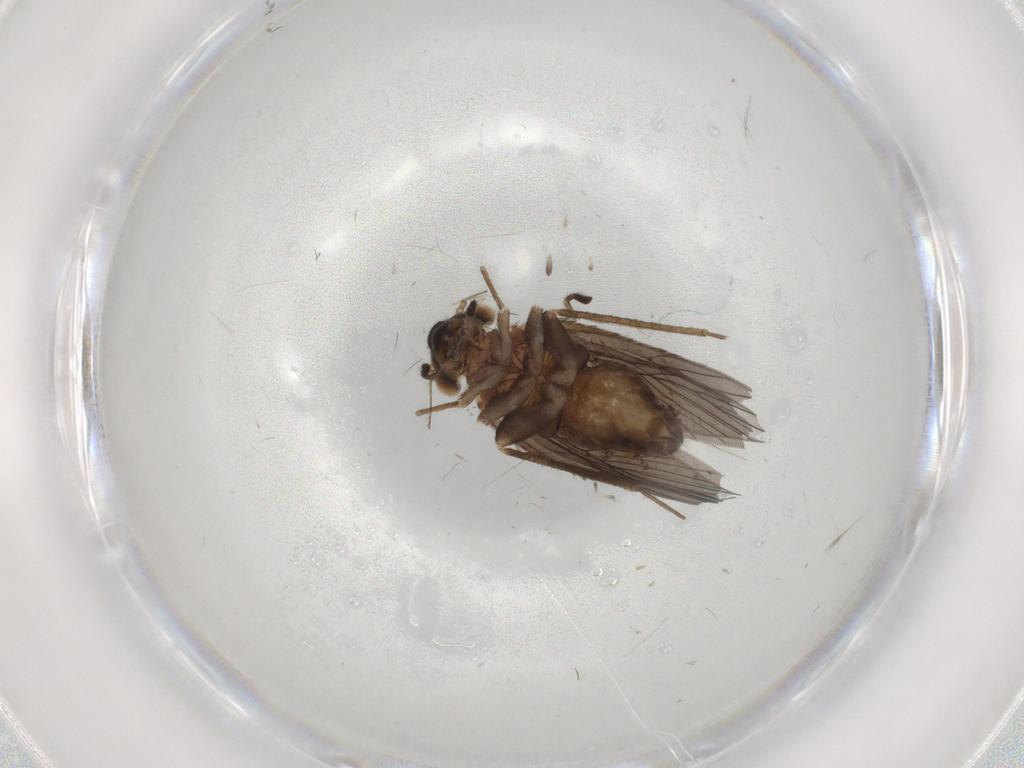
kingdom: Animalia
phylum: Arthropoda
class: Insecta
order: Psocodea
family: Lepidopsocidae
